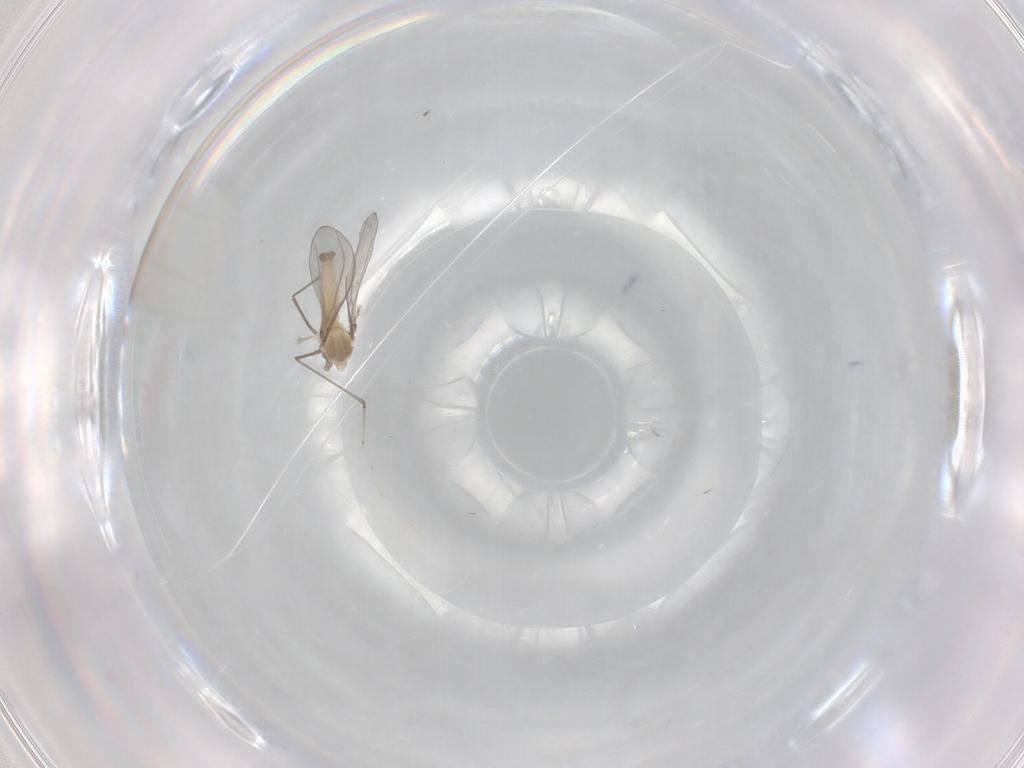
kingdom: Animalia
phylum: Arthropoda
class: Insecta
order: Diptera
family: Cecidomyiidae
